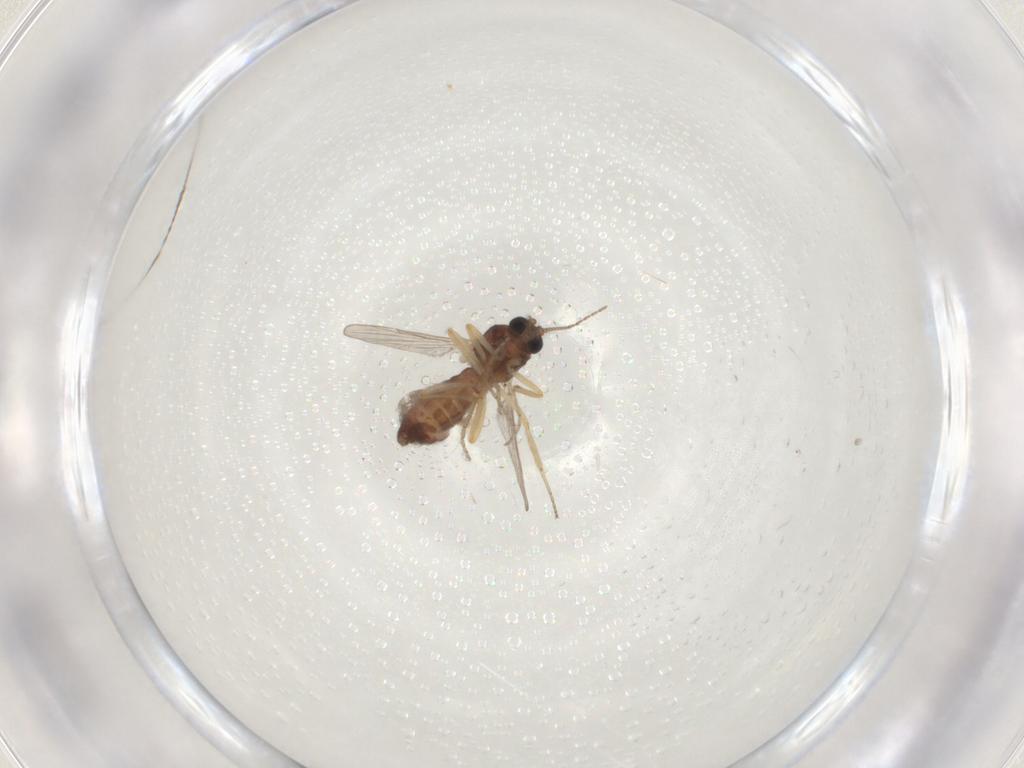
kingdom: Animalia
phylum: Arthropoda
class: Insecta
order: Diptera
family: Ceratopogonidae
